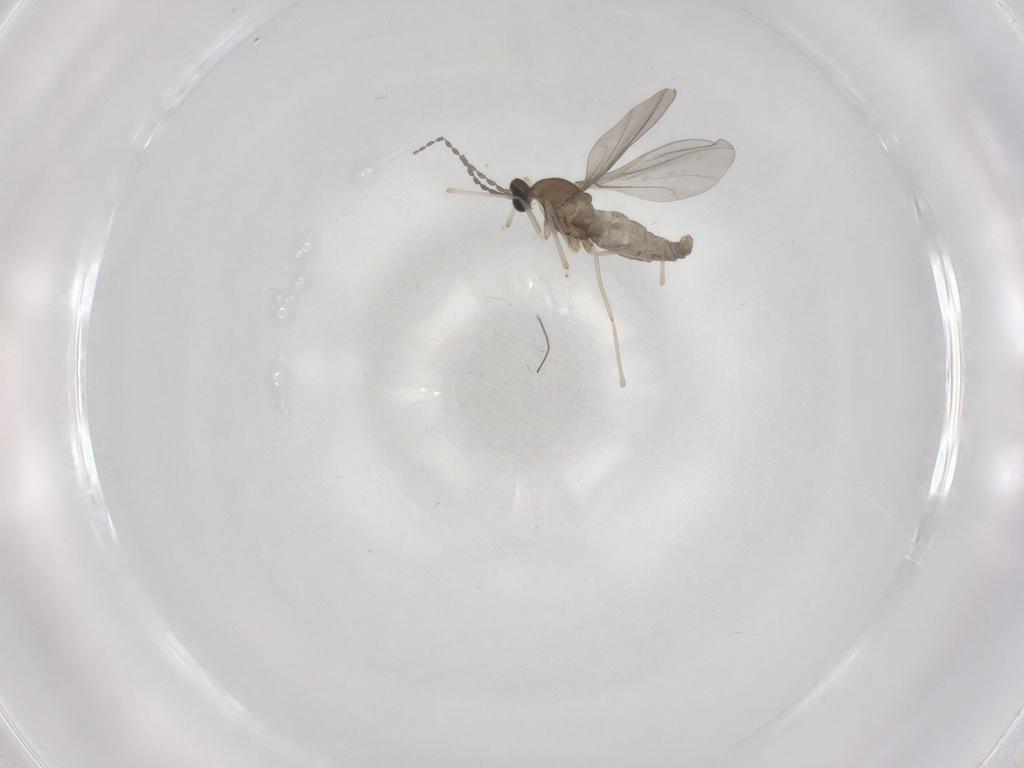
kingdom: Animalia
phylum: Arthropoda
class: Insecta
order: Diptera
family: Cecidomyiidae
